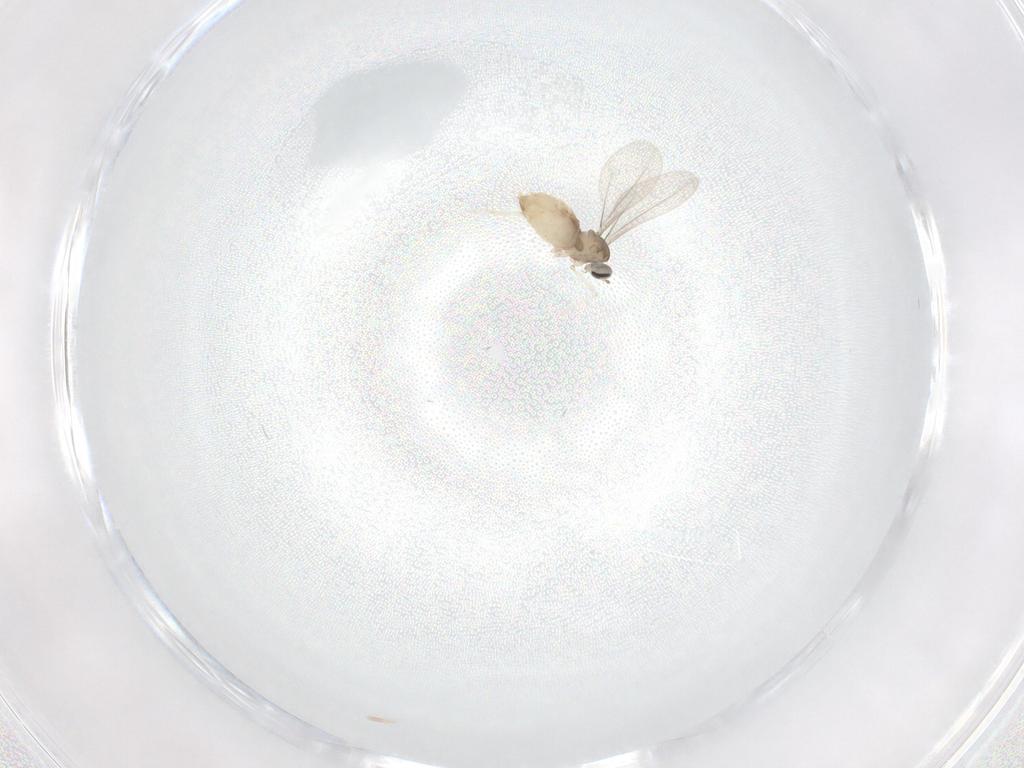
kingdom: Animalia
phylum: Arthropoda
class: Insecta
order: Diptera
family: Cecidomyiidae
